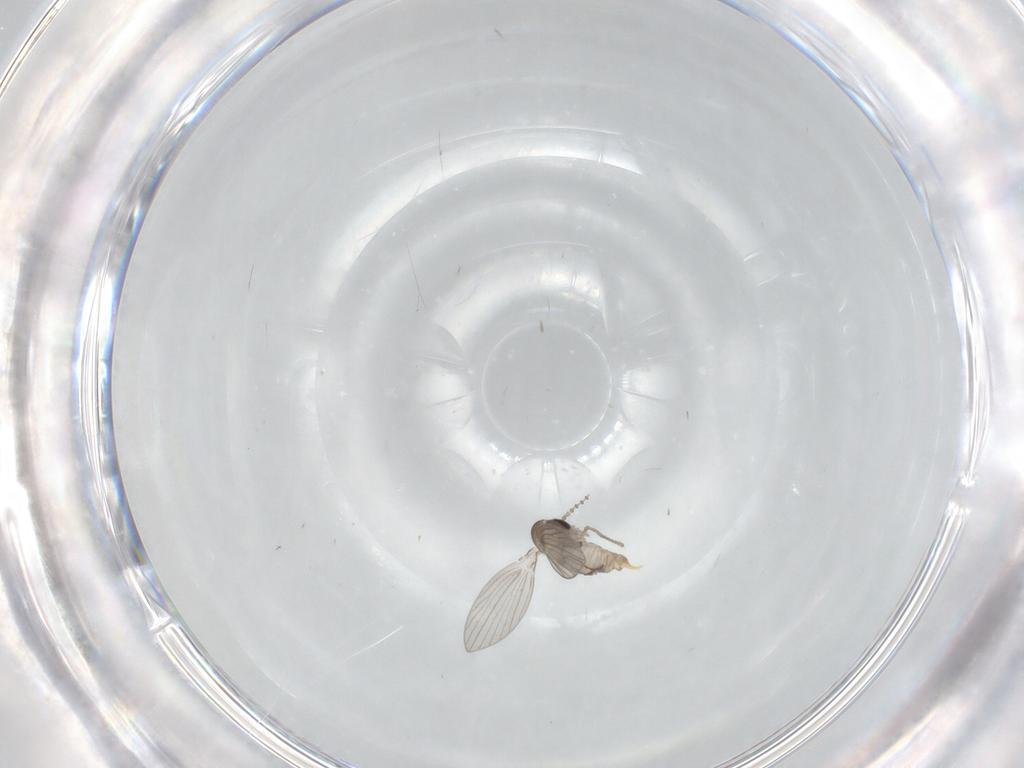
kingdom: Animalia
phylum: Arthropoda
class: Insecta
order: Diptera
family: Psychodidae
